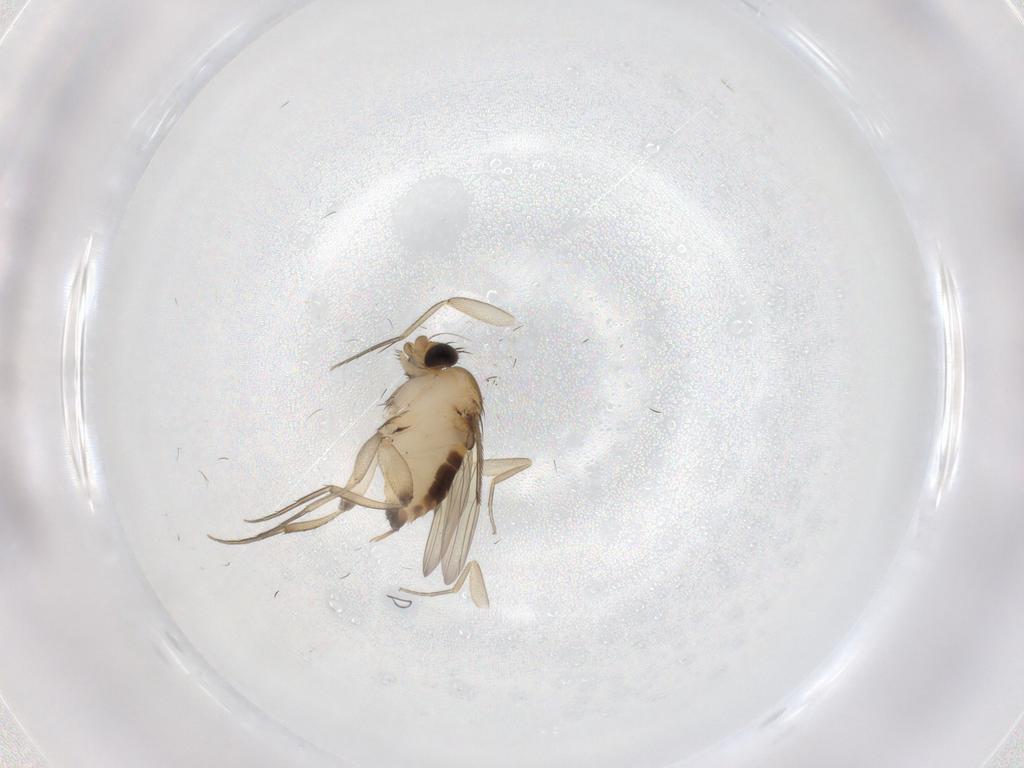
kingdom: Animalia
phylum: Arthropoda
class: Insecta
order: Diptera
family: Phoridae
